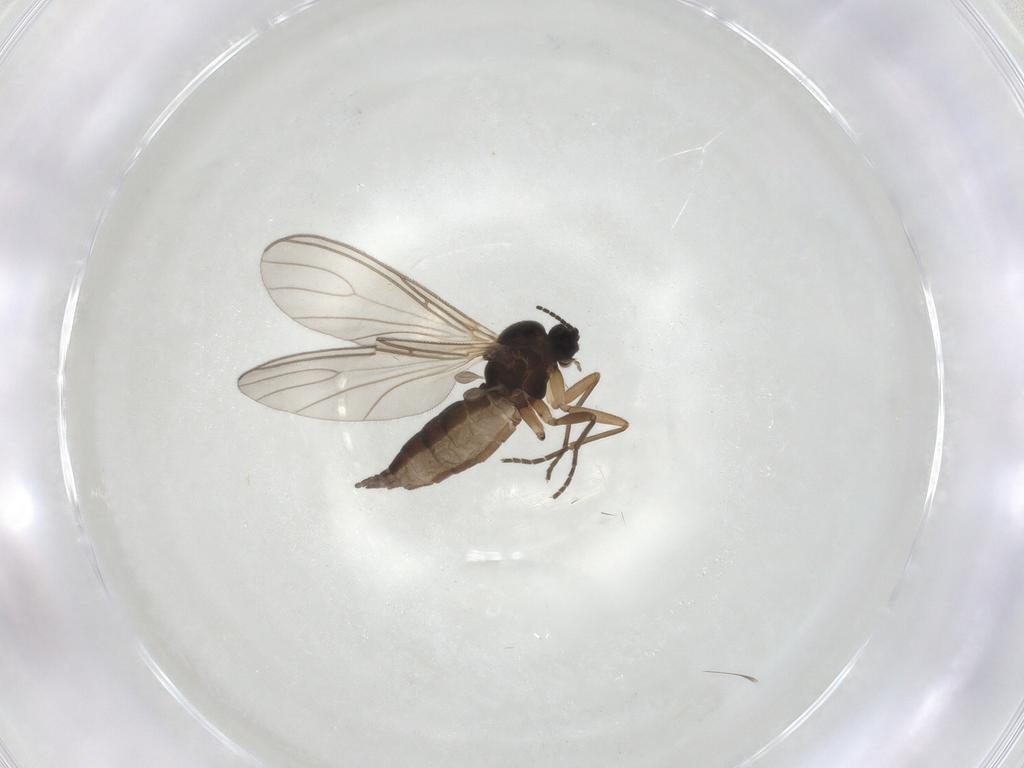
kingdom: Animalia
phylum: Arthropoda
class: Insecta
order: Diptera
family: Sciaridae
